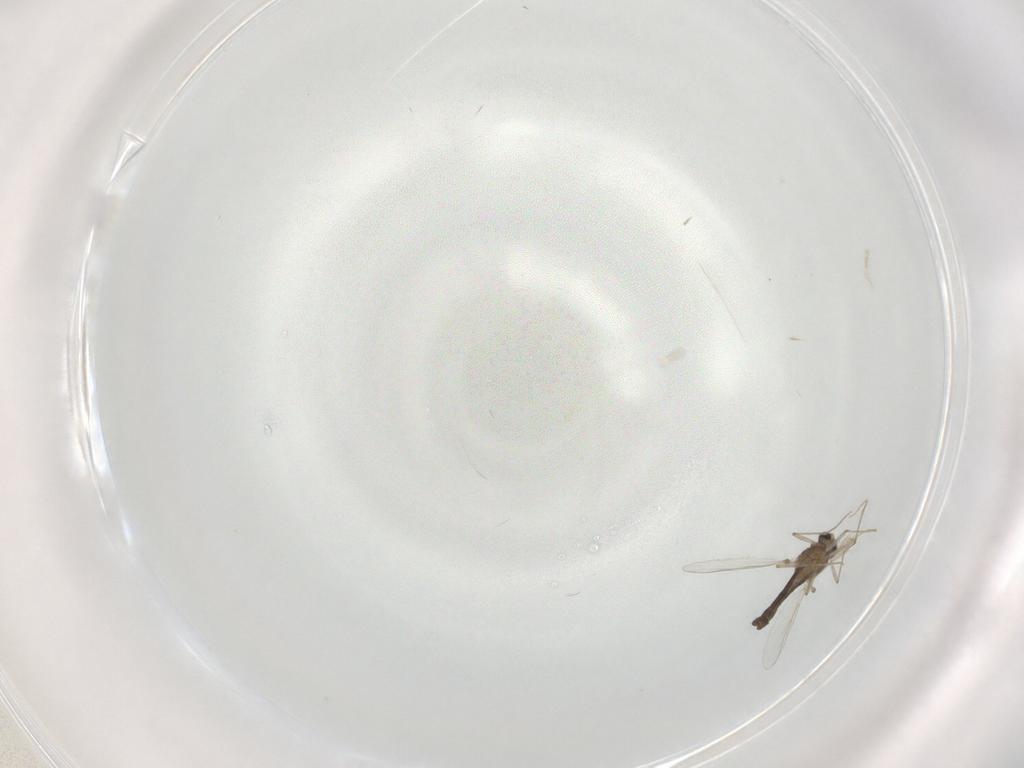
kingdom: Animalia
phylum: Arthropoda
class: Insecta
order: Diptera
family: Chironomidae
